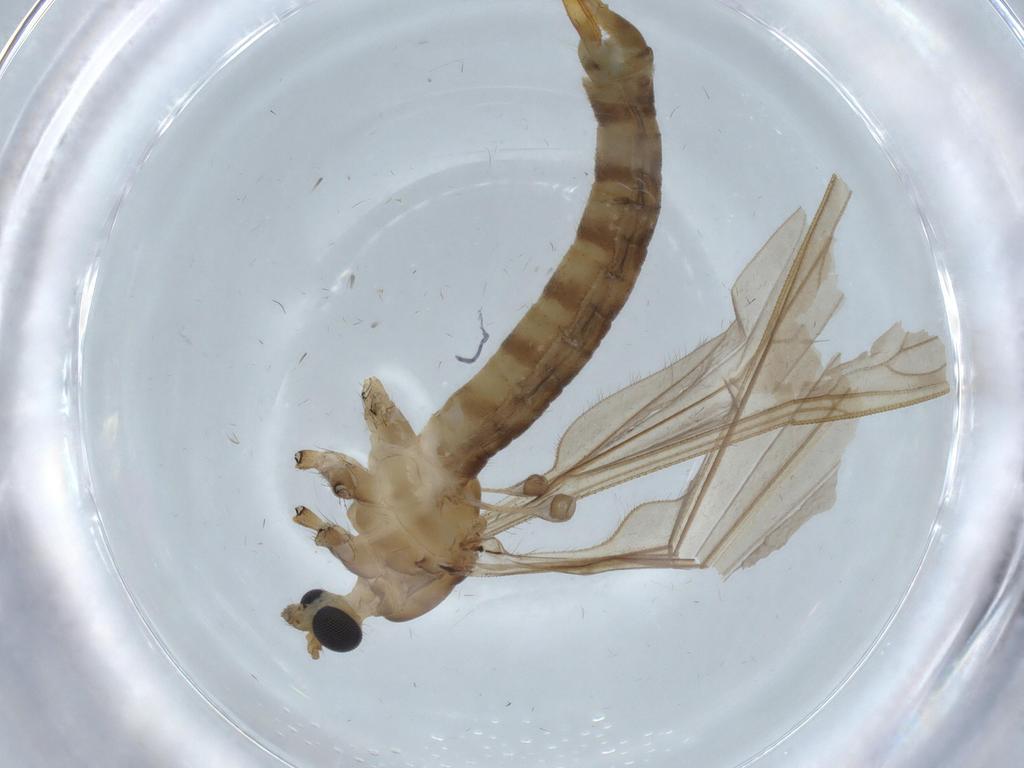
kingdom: Animalia
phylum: Arthropoda
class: Insecta
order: Diptera
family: Limoniidae
